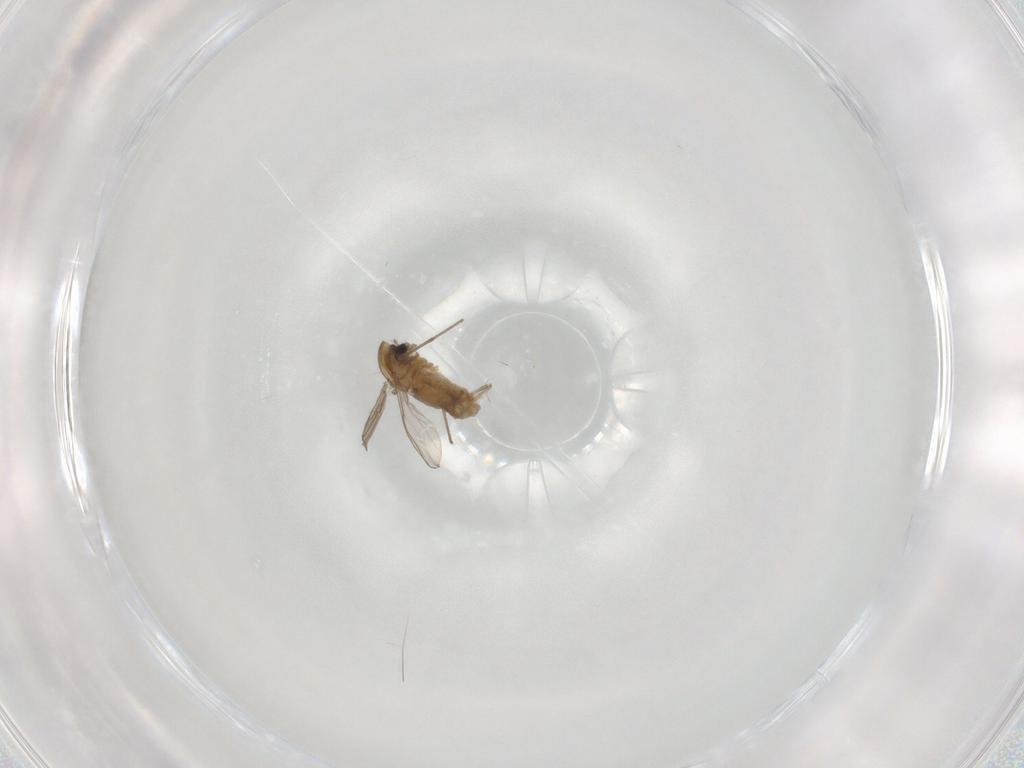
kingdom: Animalia
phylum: Arthropoda
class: Insecta
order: Diptera
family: Chironomidae
